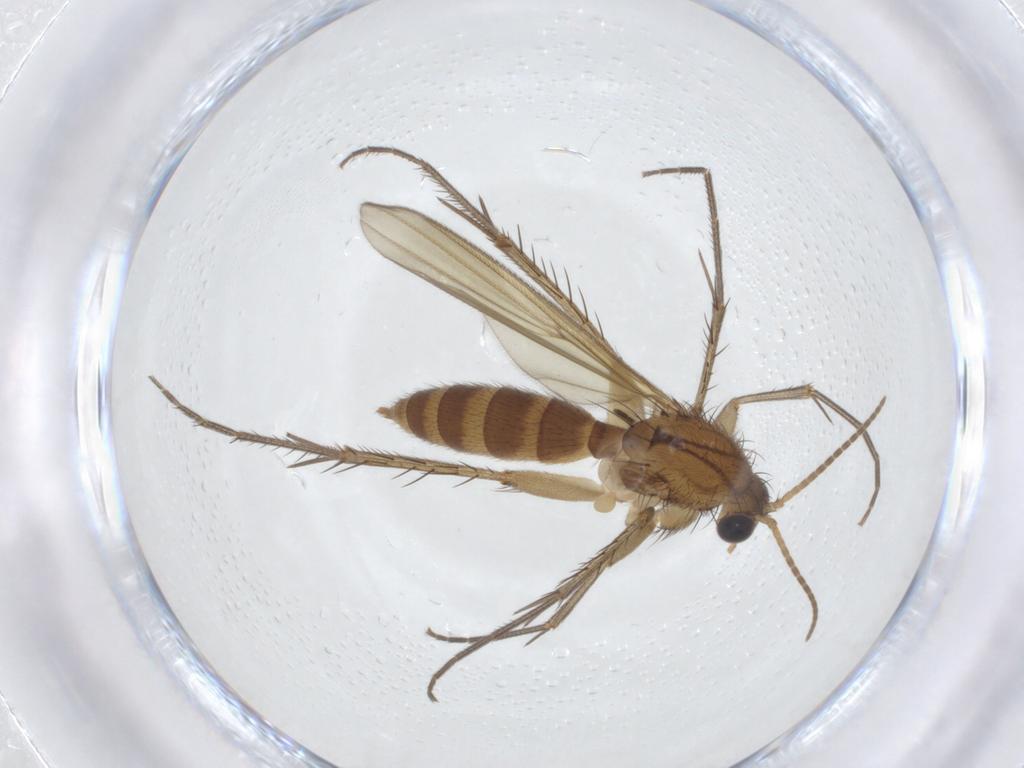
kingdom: Animalia
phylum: Arthropoda
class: Insecta
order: Diptera
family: Sciaridae
